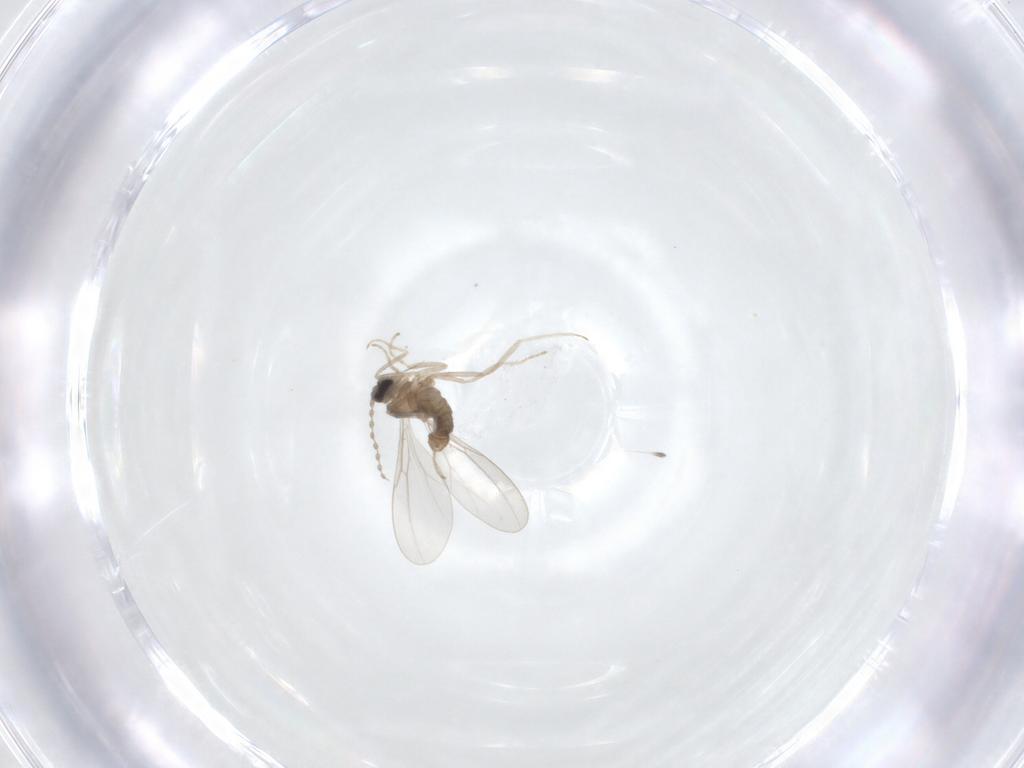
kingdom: Animalia
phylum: Arthropoda
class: Insecta
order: Diptera
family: Cecidomyiidae
